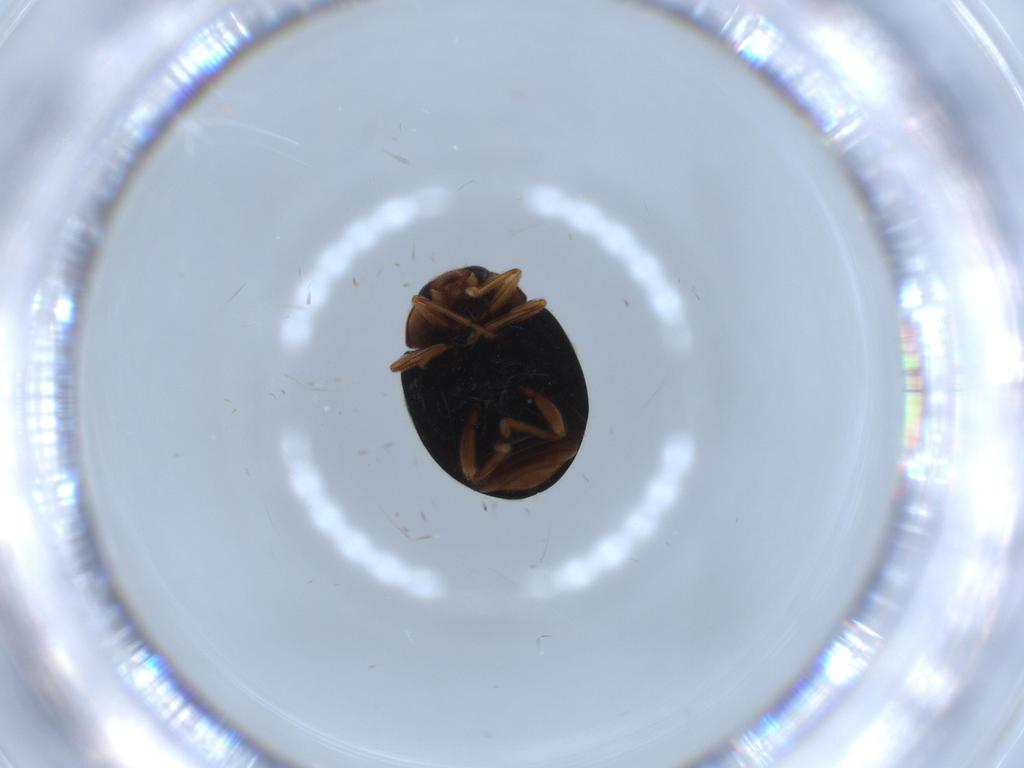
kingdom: Animalia
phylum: Arthropoda
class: Insecta
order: Coleoptera
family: Coccinellidae
